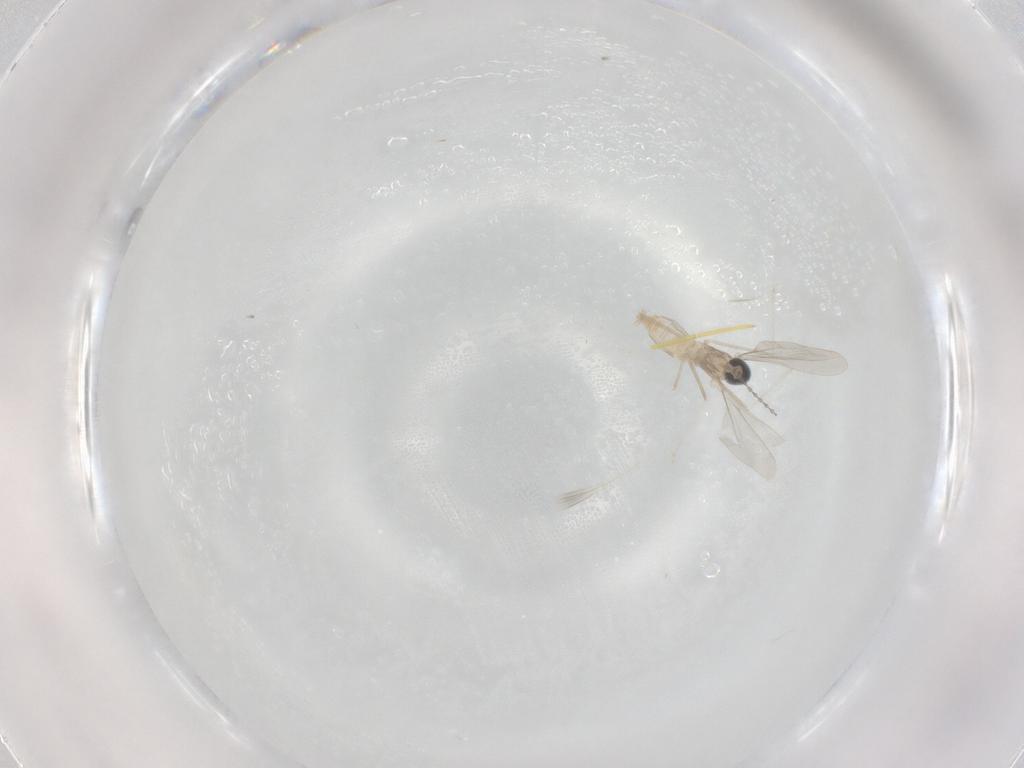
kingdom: Animalia
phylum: Arthropoda
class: Insecta
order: Diptera
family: Cecidomyiidae
